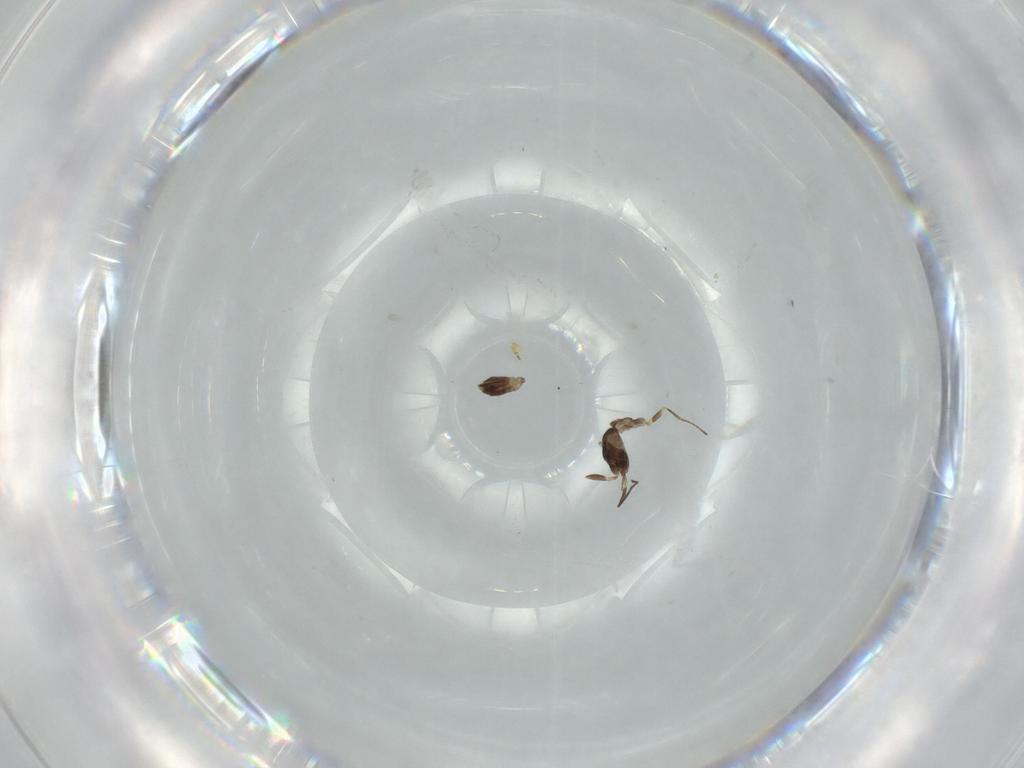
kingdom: Animalia
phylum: Arthropoda
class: Insecta
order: Hymenoptera
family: Mymaridae
